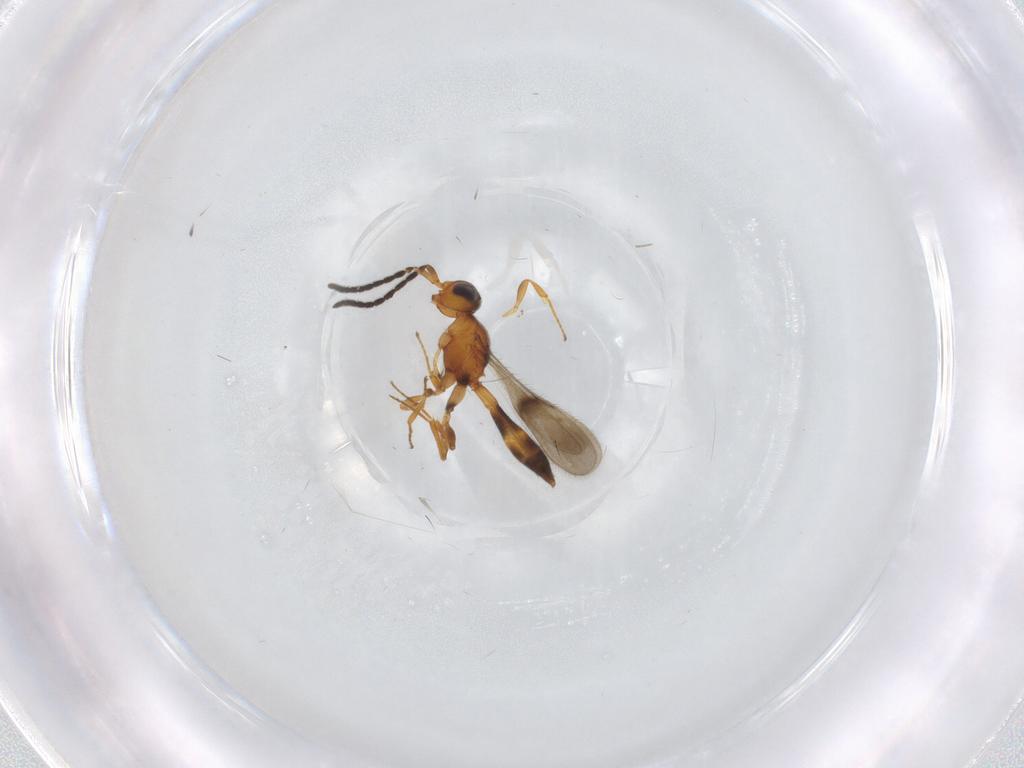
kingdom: Animalia
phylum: Arthropoda
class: Insecta
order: Hymenoptera
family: Scelionidae
